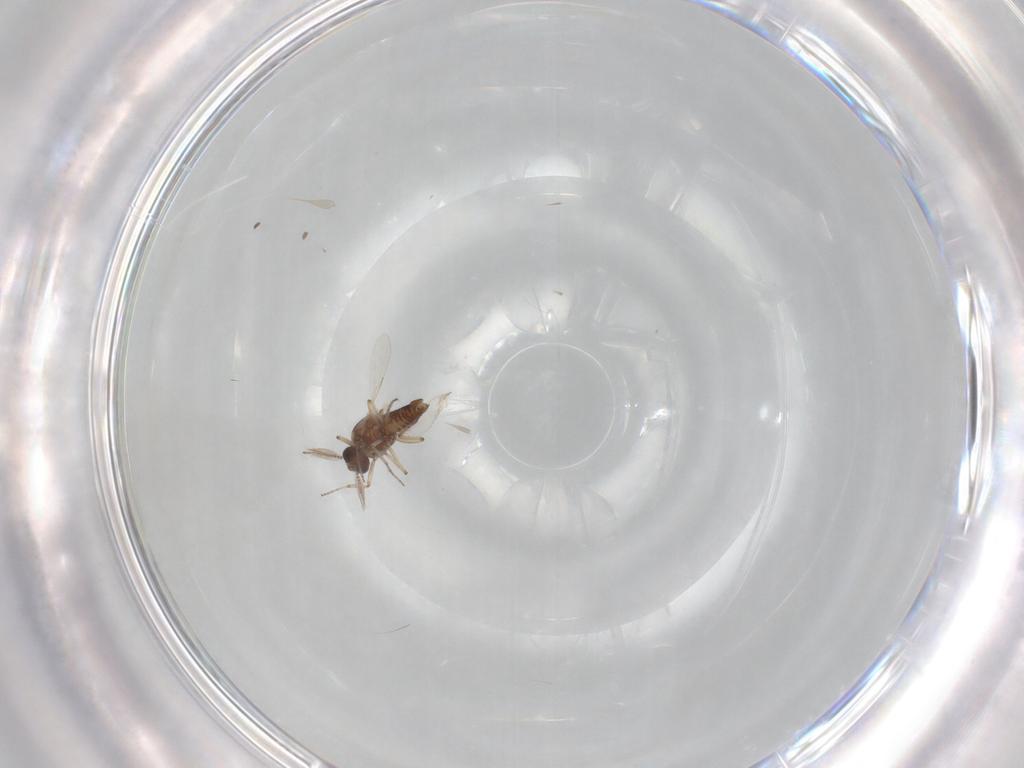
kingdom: Animalia
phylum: Arthropoda
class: Insecta
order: Diptera
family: Ceratopogonidae
